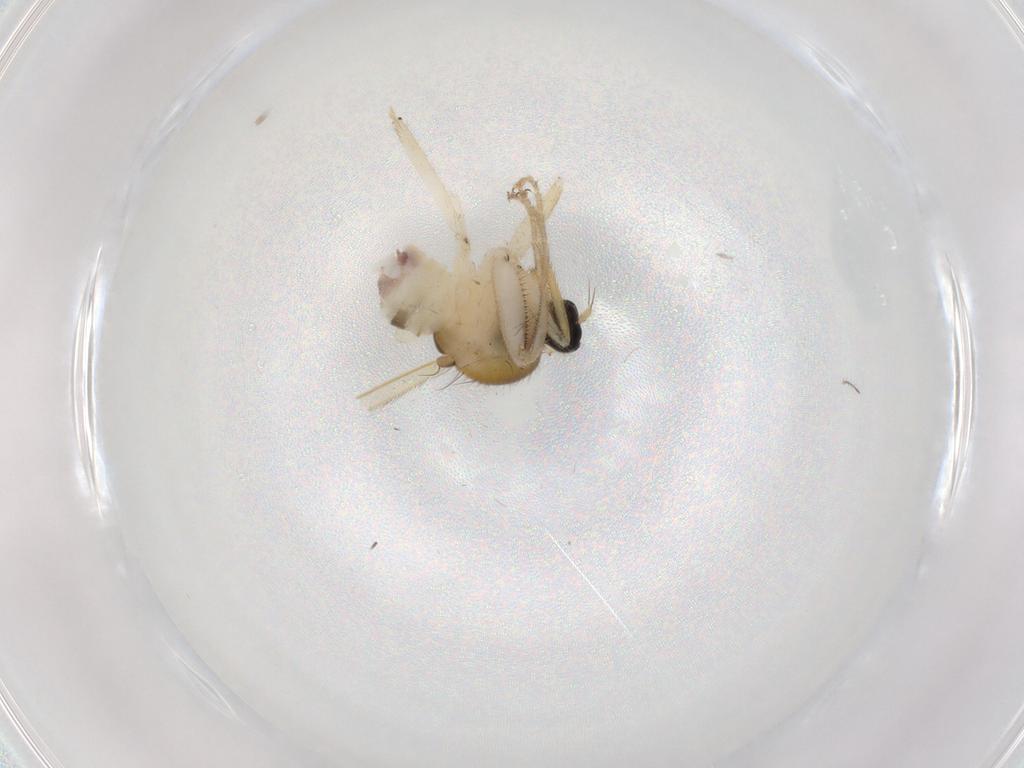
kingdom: Animalia
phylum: Arthropoda
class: Insecta
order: Diptera
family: Hybotidae
